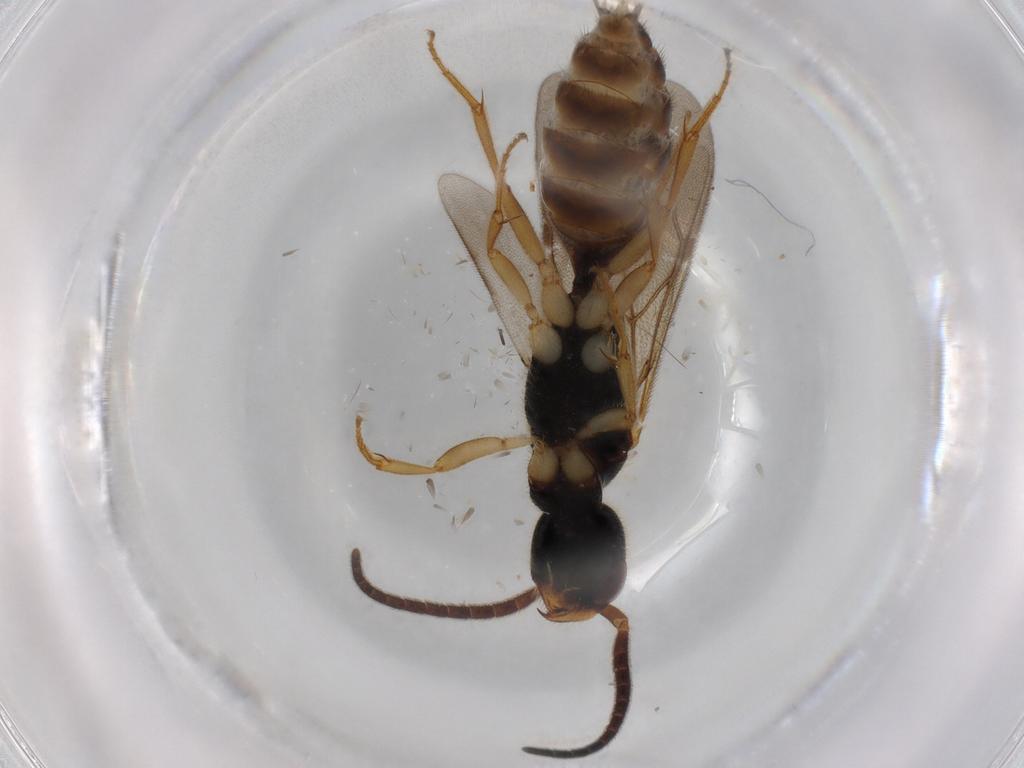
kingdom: Animalia
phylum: Arthropoda
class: Insecta
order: Hymenoptera
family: Bethylidae
